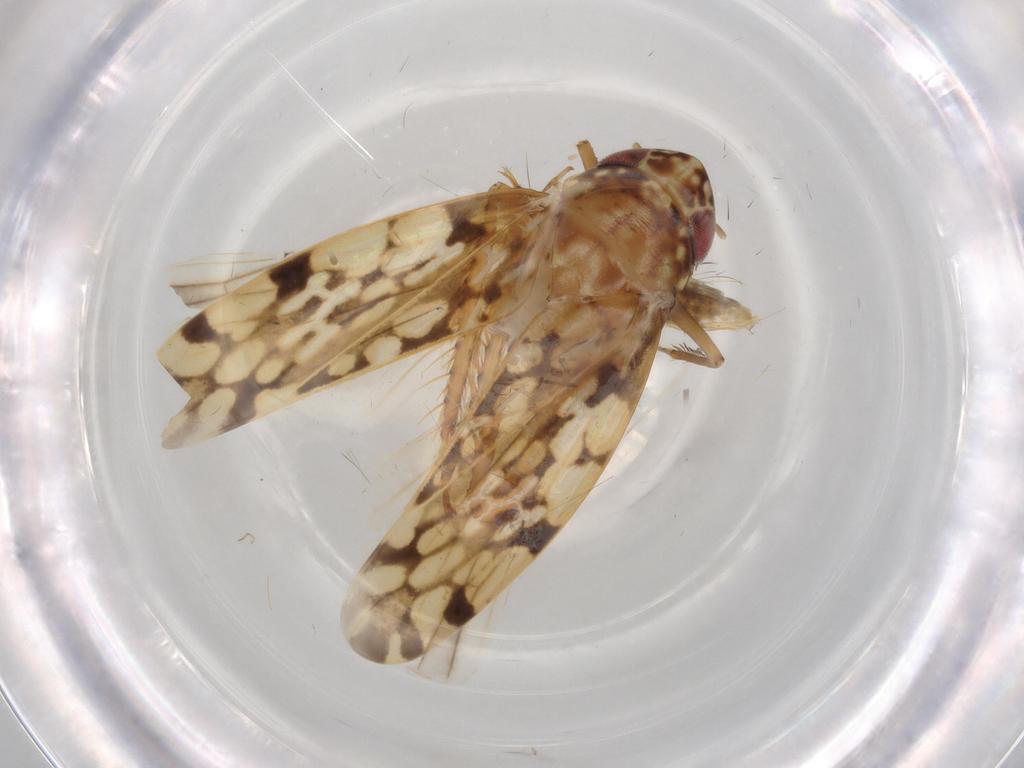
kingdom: Animalia
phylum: Arthropoda
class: Insecta
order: Hemiptera
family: Cicadellidae
